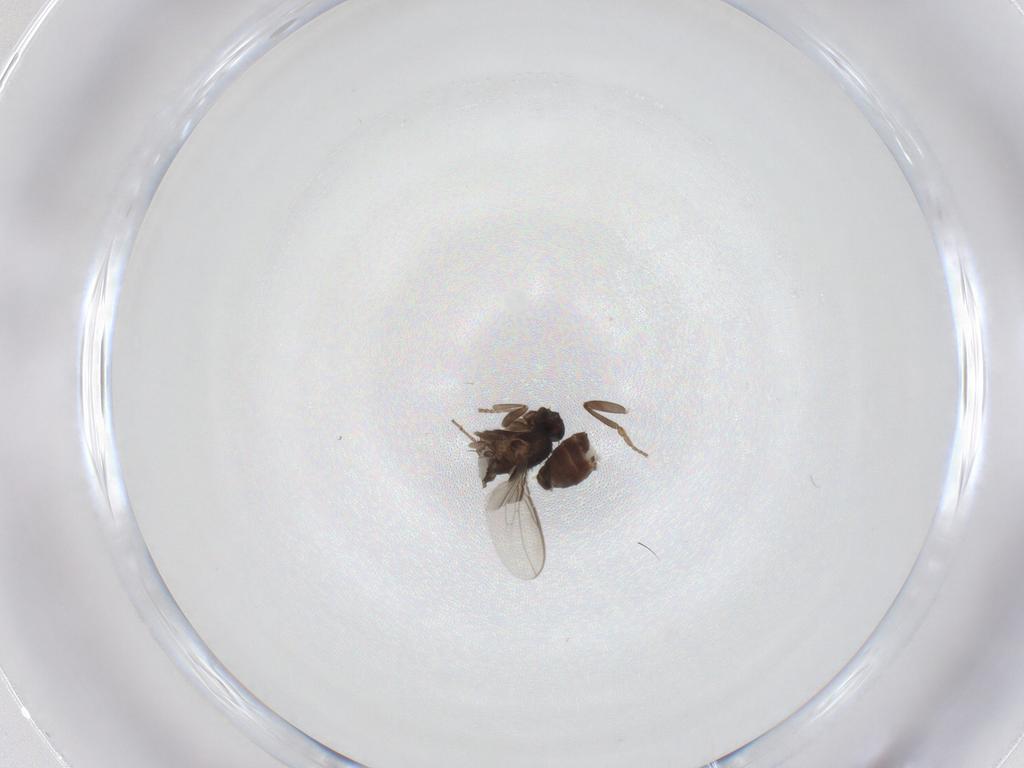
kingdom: Animalia
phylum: Arthropoda
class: Insecta
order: Diptera
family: Sphaeroceridae
